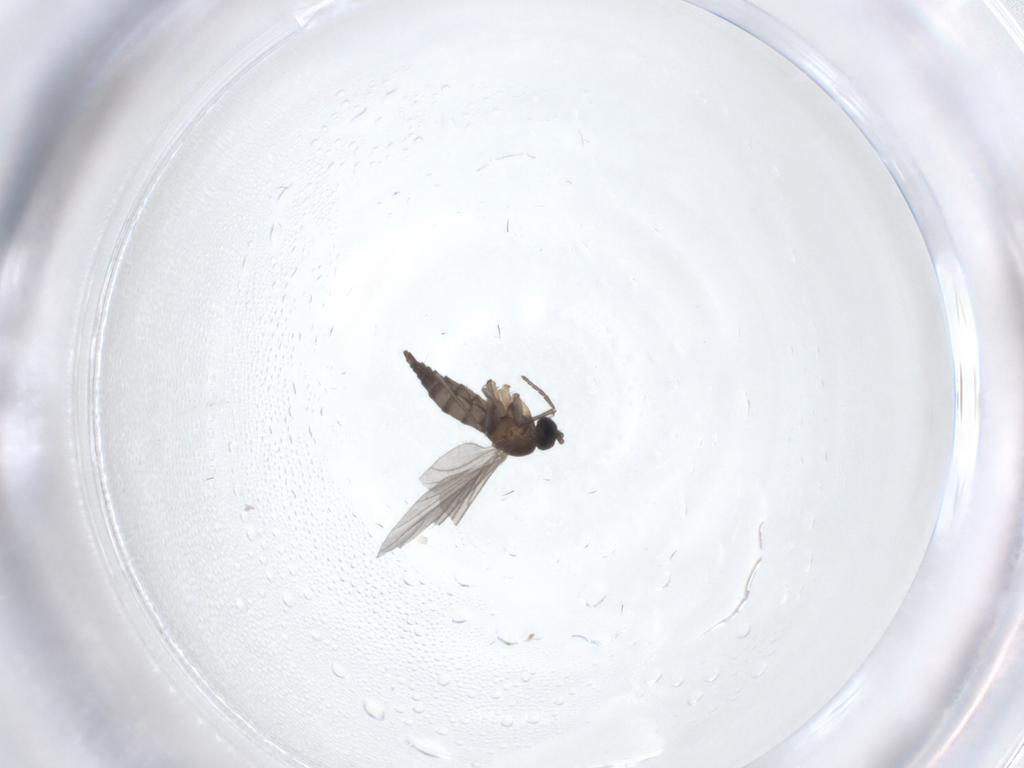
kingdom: Animalia
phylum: Arthropoda
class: Insecta
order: Diptera
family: Sciaridae
